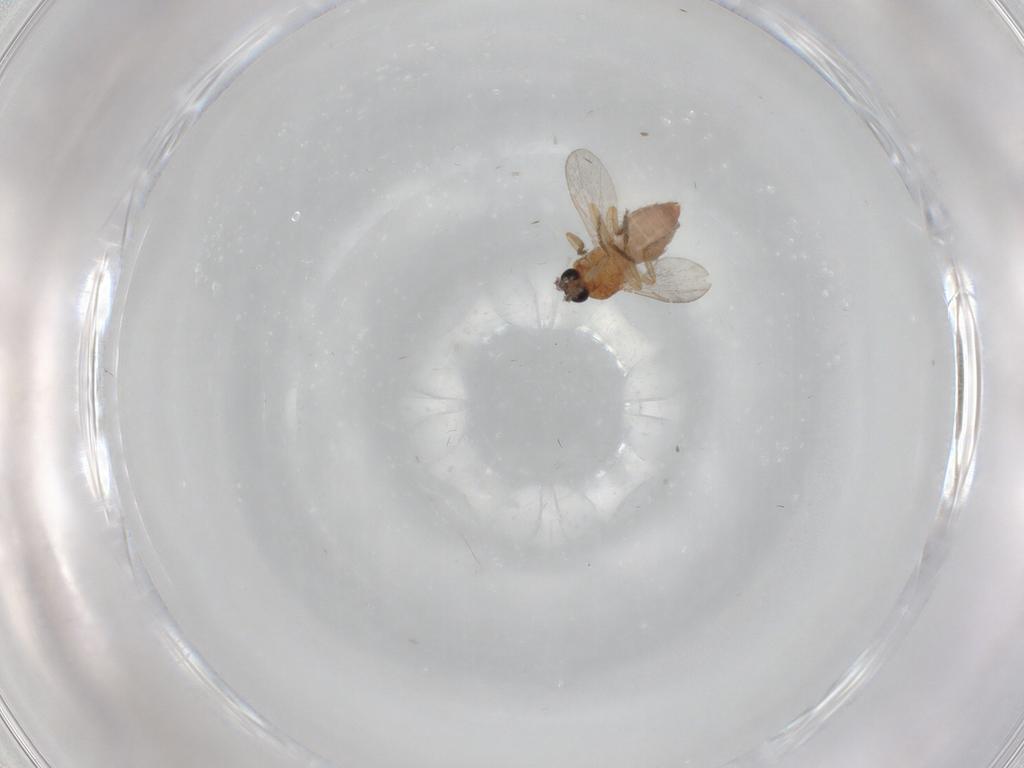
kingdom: Animalia
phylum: Arthropoda
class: Insecta
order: Diptera
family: Ceratopogonidae
